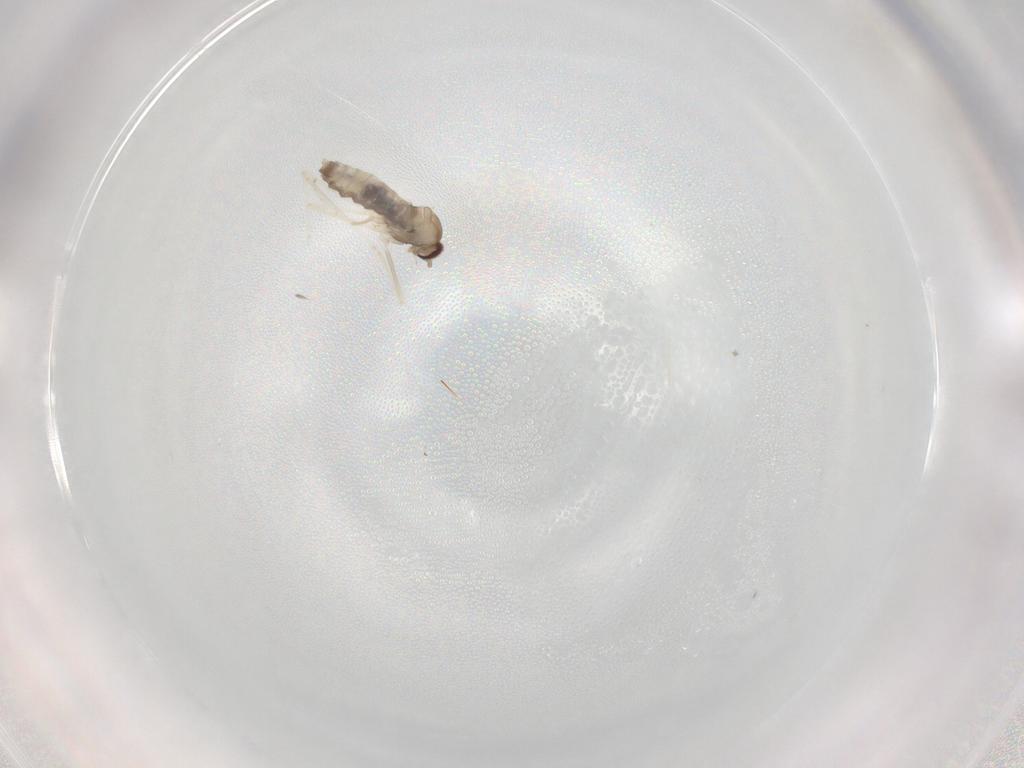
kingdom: Animalia
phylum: Arthropoda
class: Insecta
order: Diptera
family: Cecidomyiidae
